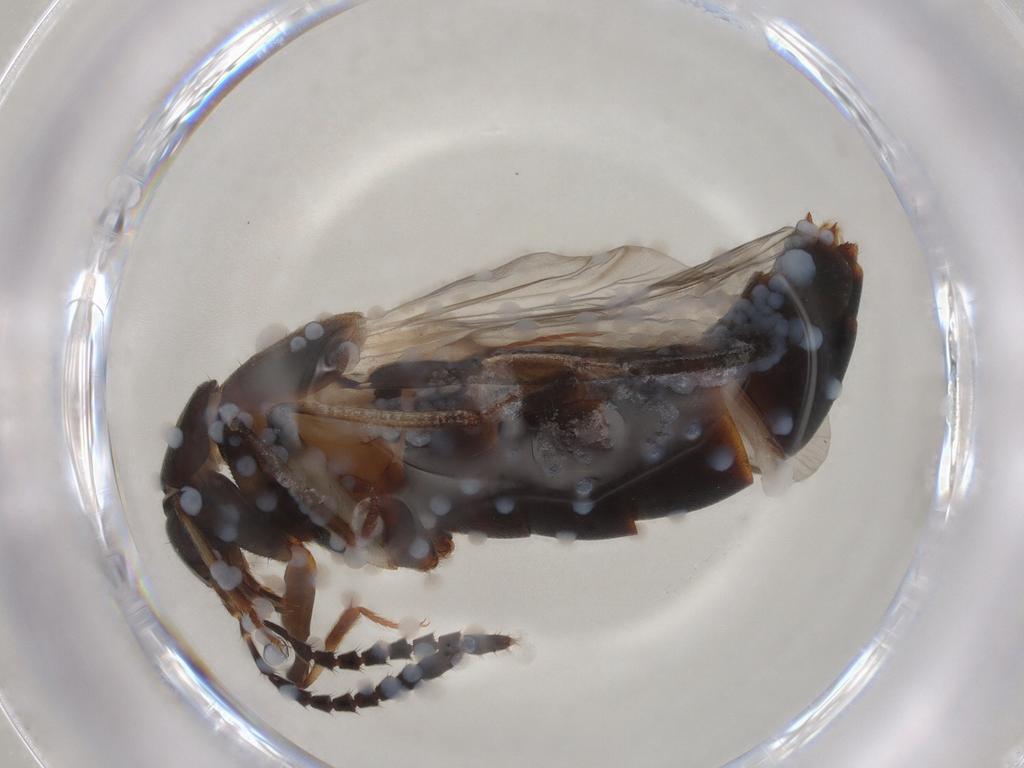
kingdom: Animalia
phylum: Arthropoda
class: Insecta
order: Coleoptera
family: Staphylinidae
